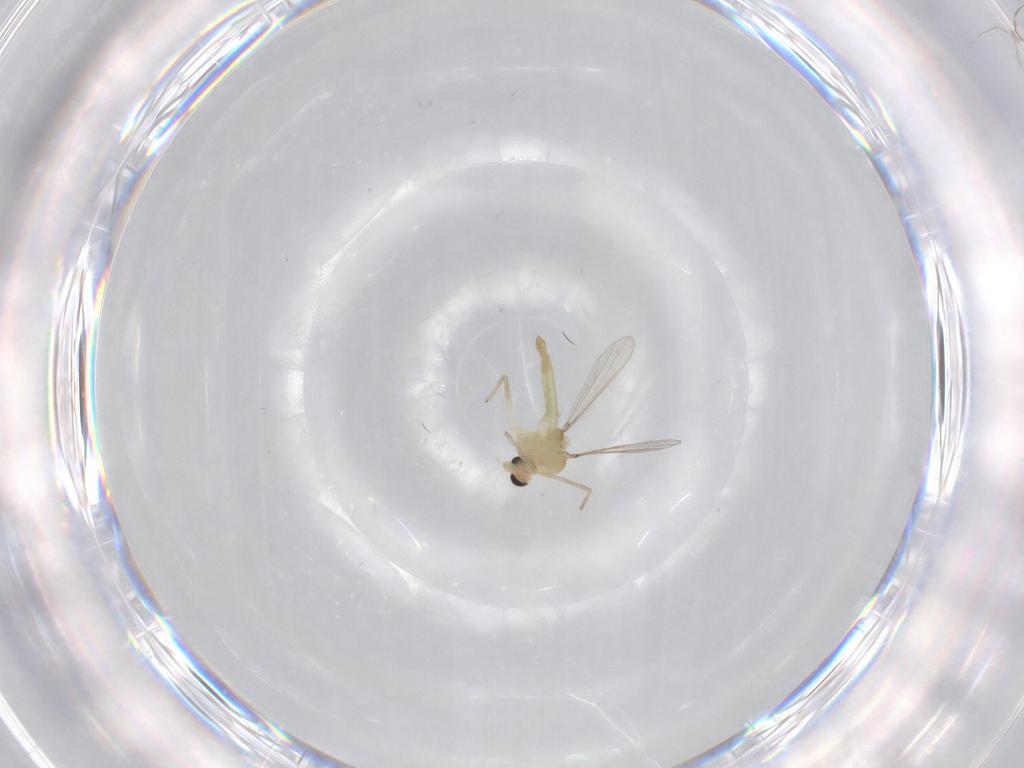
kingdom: Animalia
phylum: Arthropoda
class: Insecta
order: Diptera
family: Chironomidae
